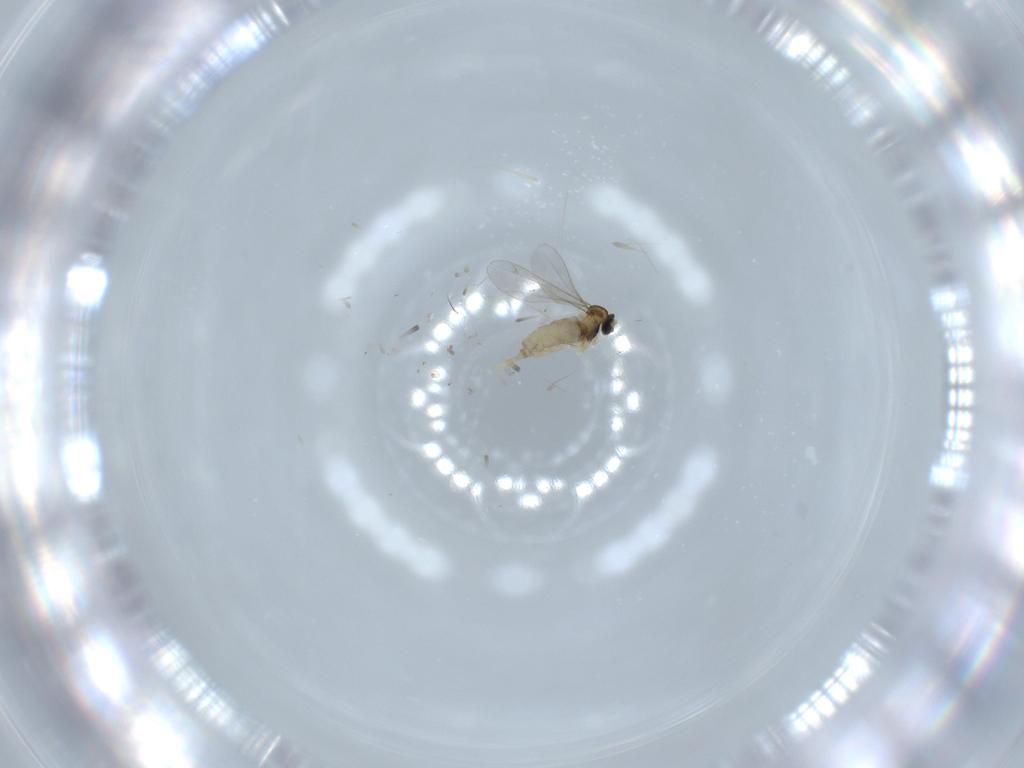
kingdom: Animalia
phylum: Arthropoda
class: Insecta
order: Diptera
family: Cecidomyiidae
